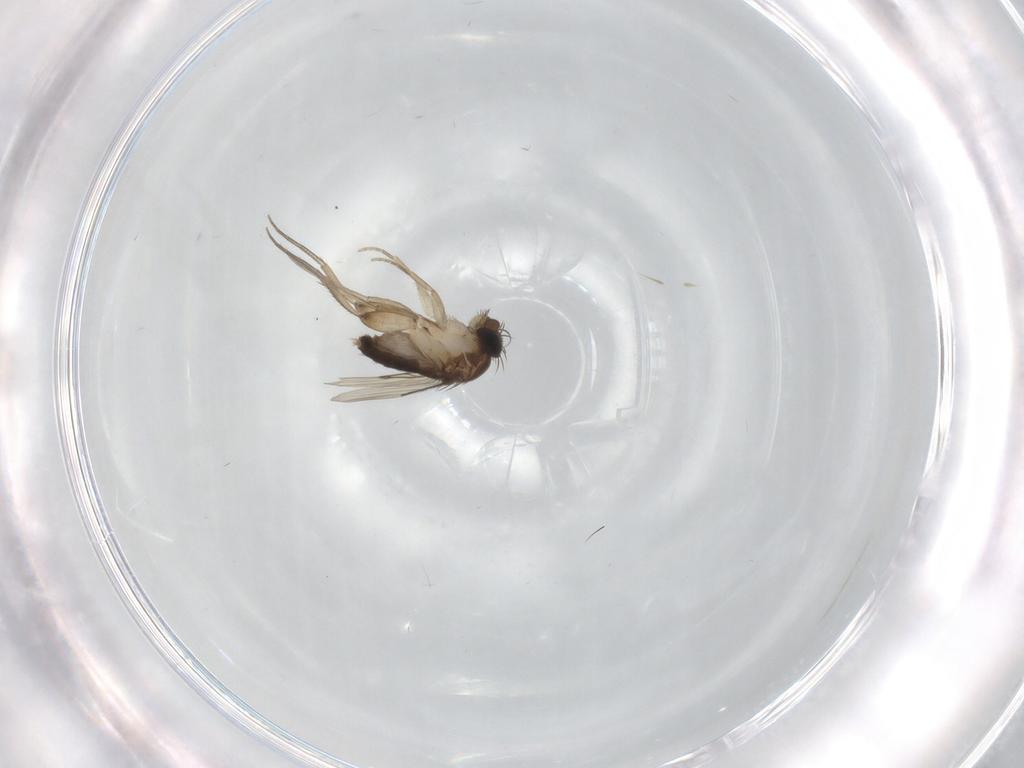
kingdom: Animalia
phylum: Arthropoda
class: Insecta
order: Diptera
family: Phoridae
